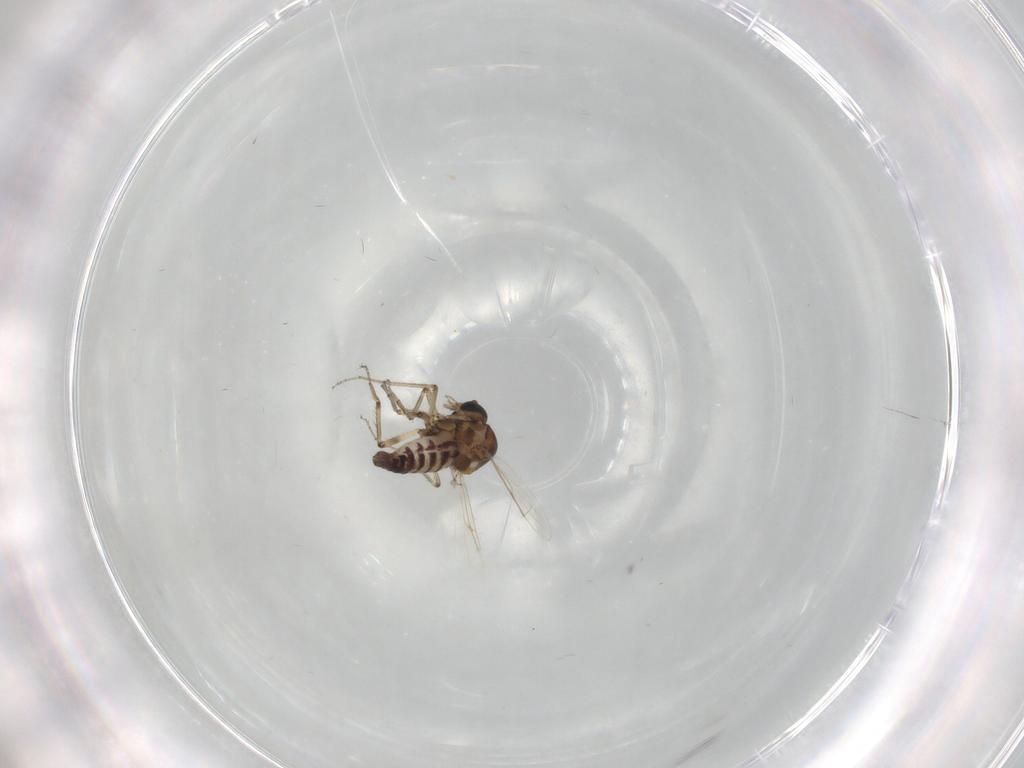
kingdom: Animalia
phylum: Arthropoda
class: Insecta
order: Diptera
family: Ceratopogonidae
